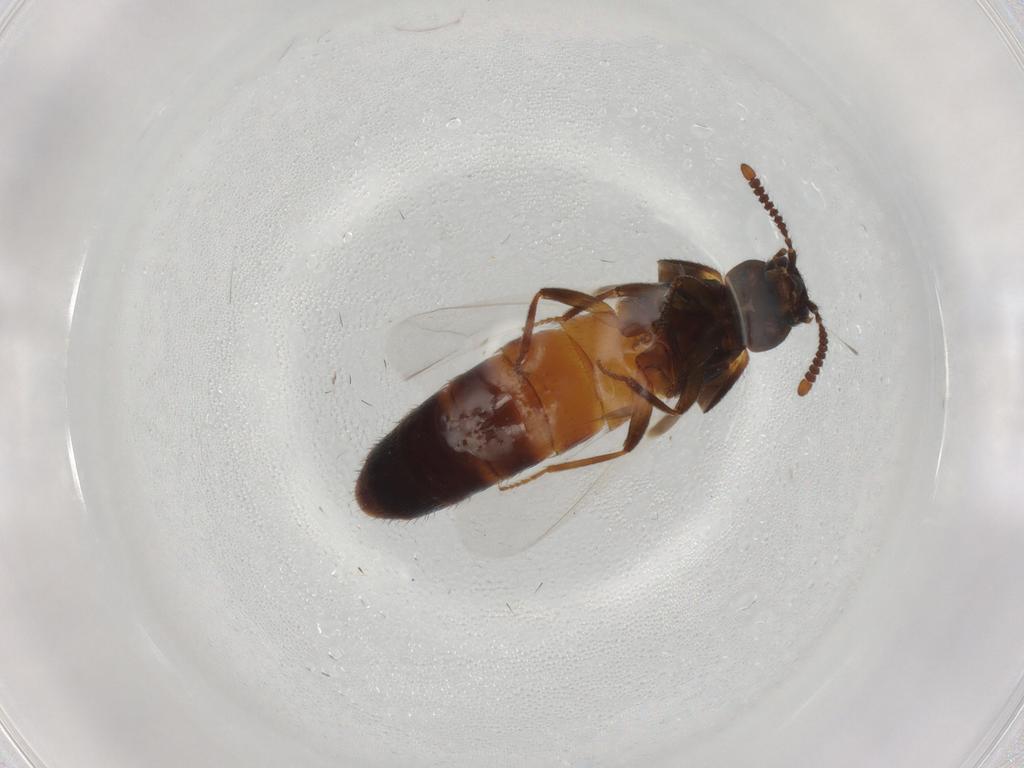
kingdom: Animalia
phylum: Arthropoda
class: Insecta
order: Coleoptera
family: Staphylinidae
